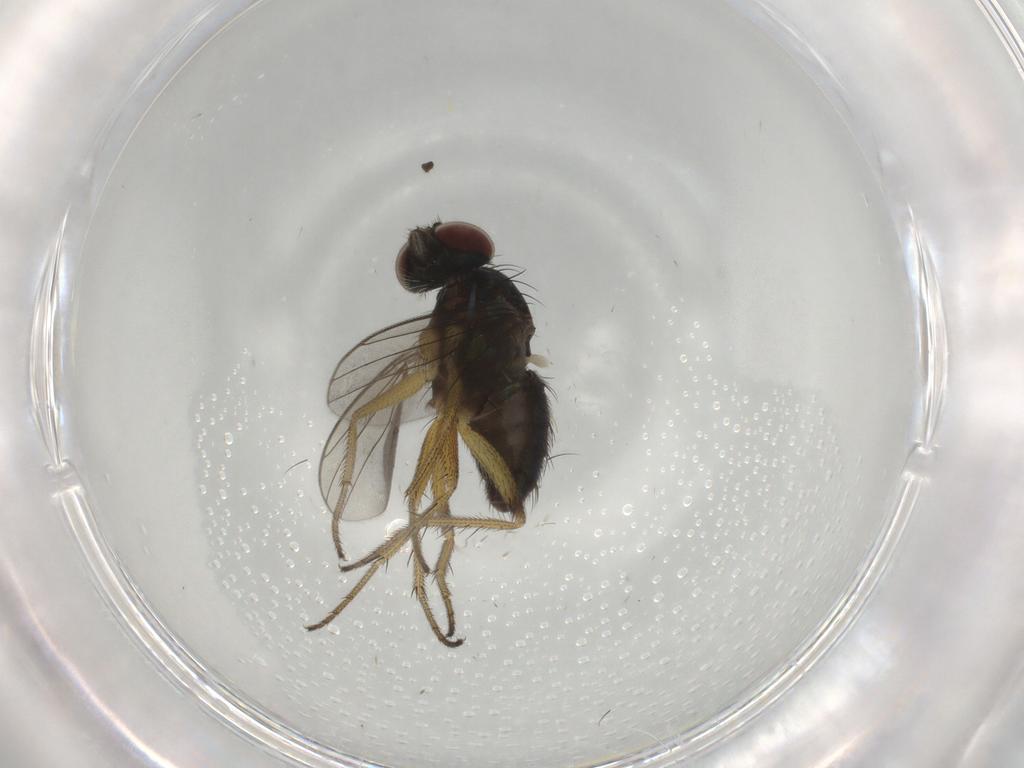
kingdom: Animalia
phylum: Arthropoda
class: Insecta
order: Diptera
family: Dolichopodidae
